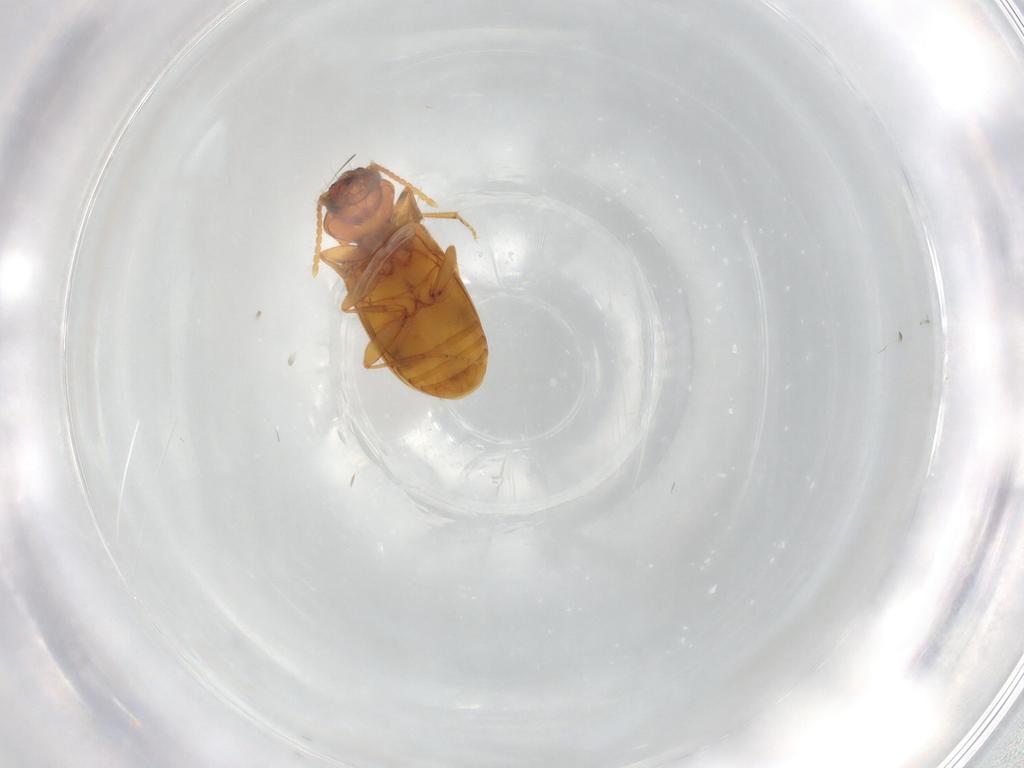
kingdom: Animalia
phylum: Arthropoda
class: Insecta
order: Coleoptera
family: Carabidae
